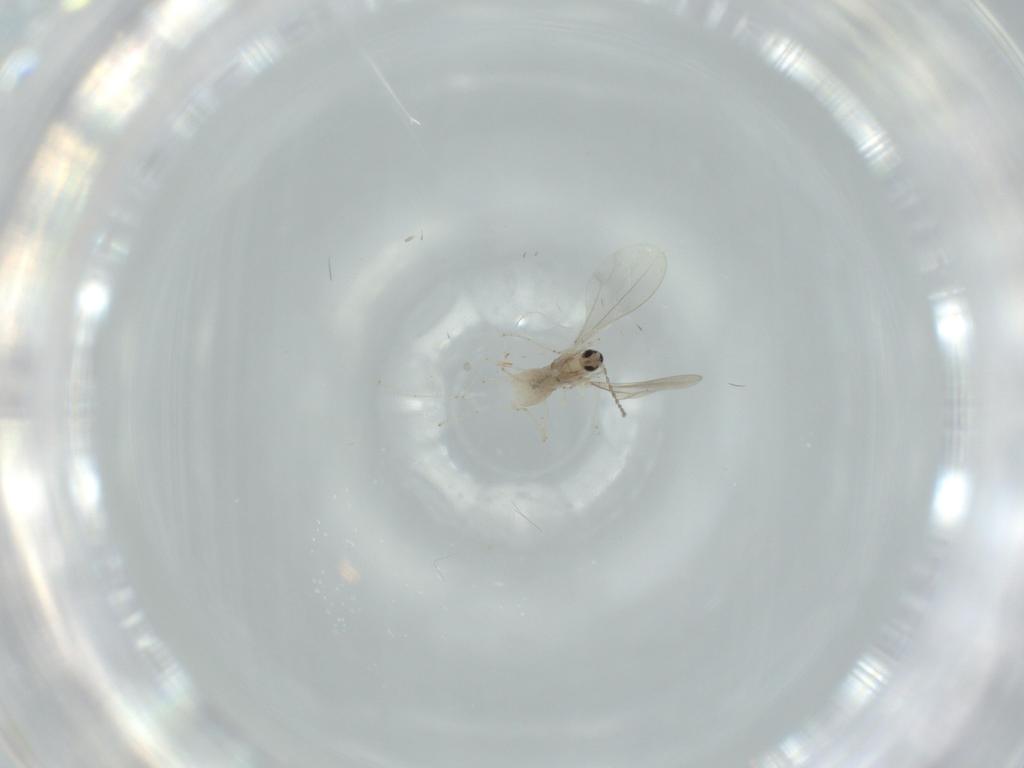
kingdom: Animalia
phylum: Arthropoda
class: Insecta
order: Diptera
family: Cecidomyiidae
